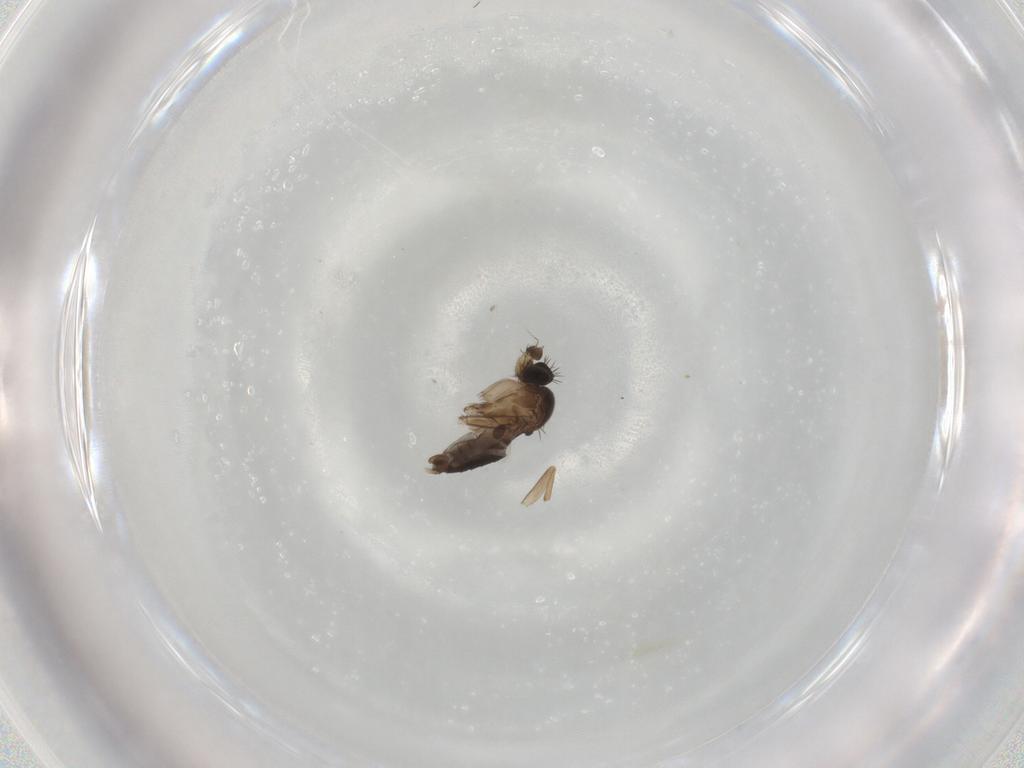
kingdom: Animalia
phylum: Arthropoda
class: Insecta
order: Diptera
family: Phoridae
